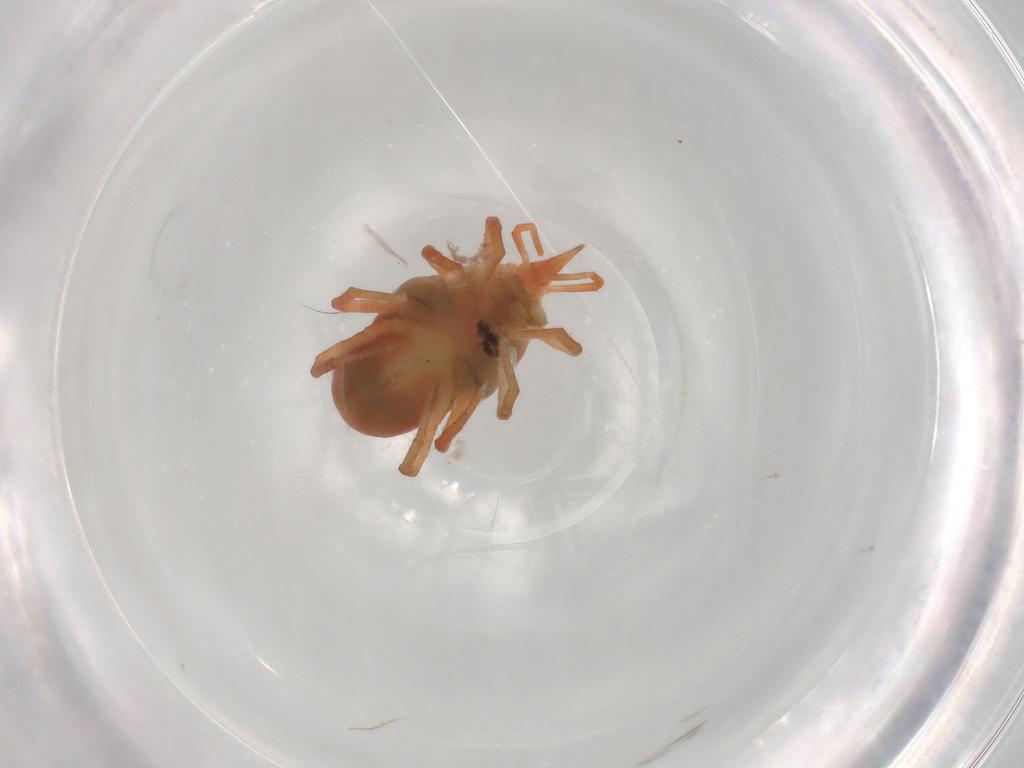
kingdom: Animalia
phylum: Arthropoda
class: Arachnida
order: Trombidiformes
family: Bdellidae
